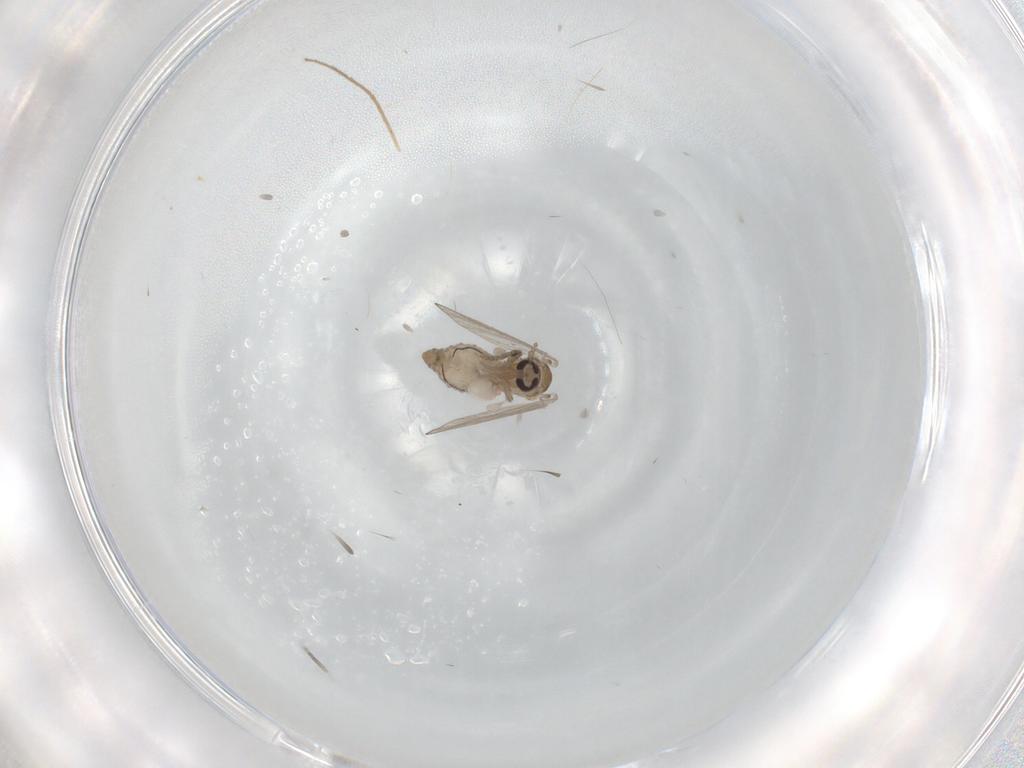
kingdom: Animalia
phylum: Arthropoda
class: Insecta
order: Diptera
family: Psychodidae
